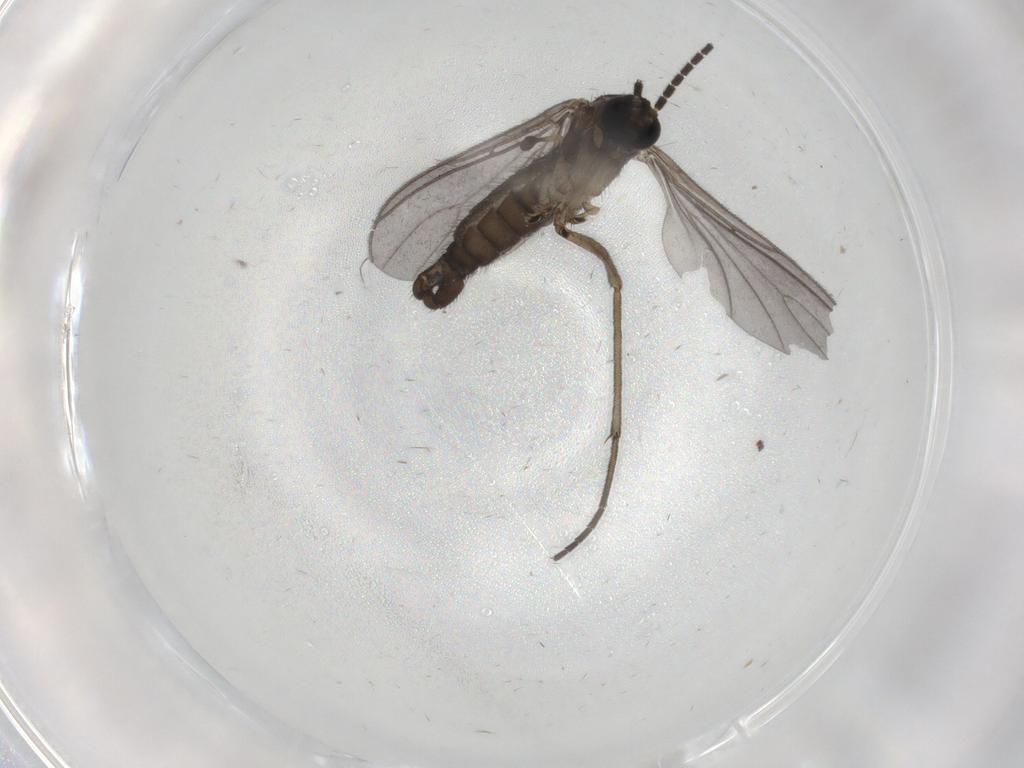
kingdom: Animalia
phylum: Arthropoda
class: Insecta
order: Diptera
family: Sciaridae
